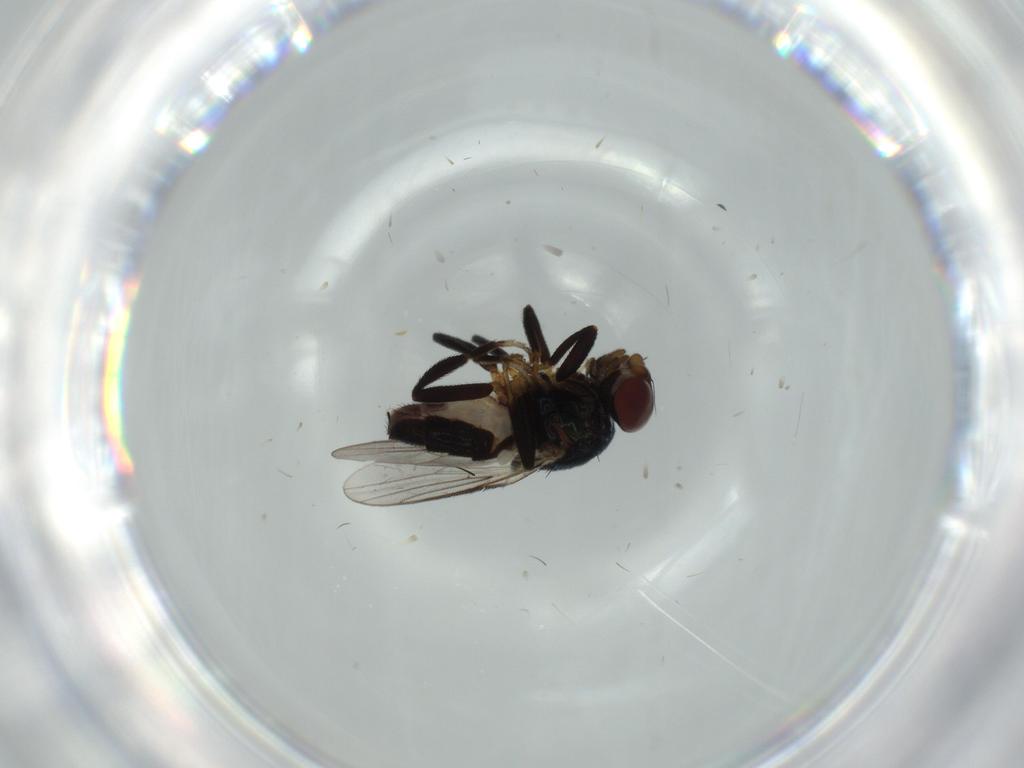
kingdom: Animalia
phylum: Arthropoda
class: Insecta
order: Diptera
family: Chloropidae
